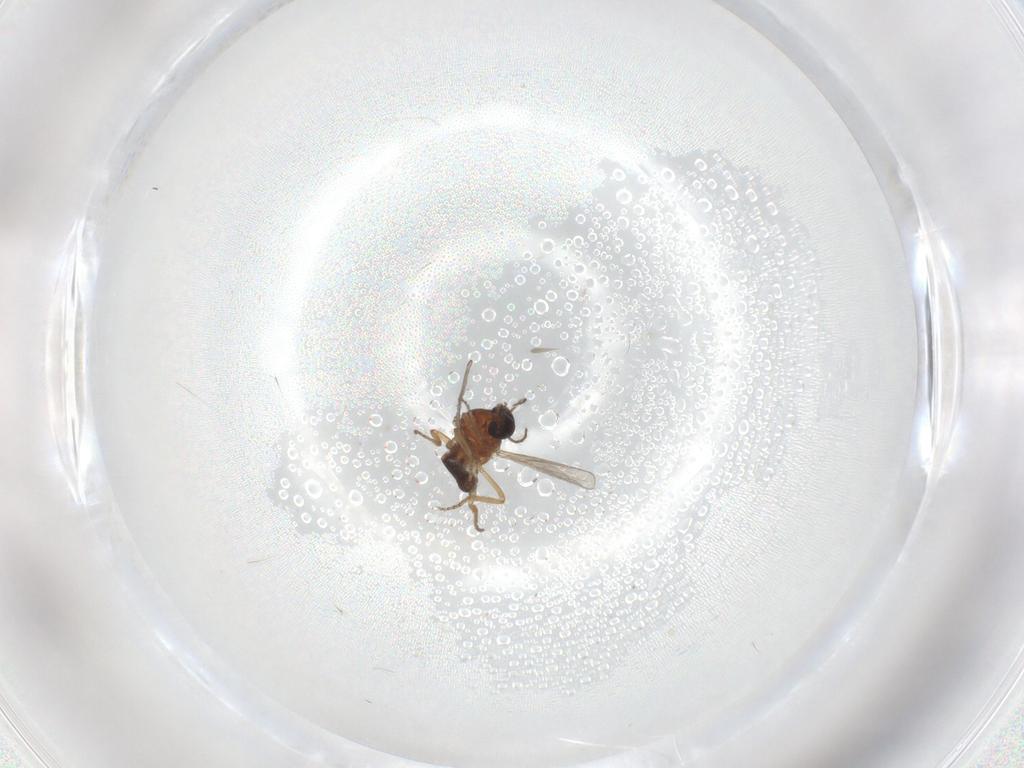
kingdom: Animalia
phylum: Arthropoda
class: Insecta
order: Diptera
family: Ceratopogonidae
